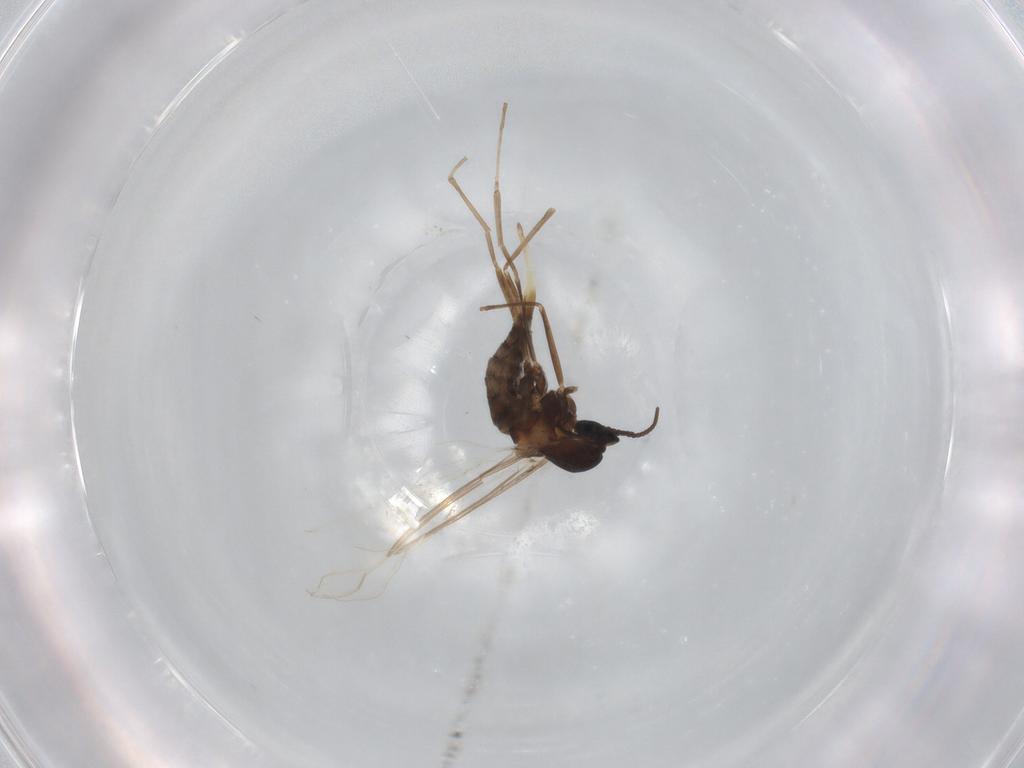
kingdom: Animalia
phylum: Arthropoda
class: Insecta
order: Diptera
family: Cecidomyiidae
